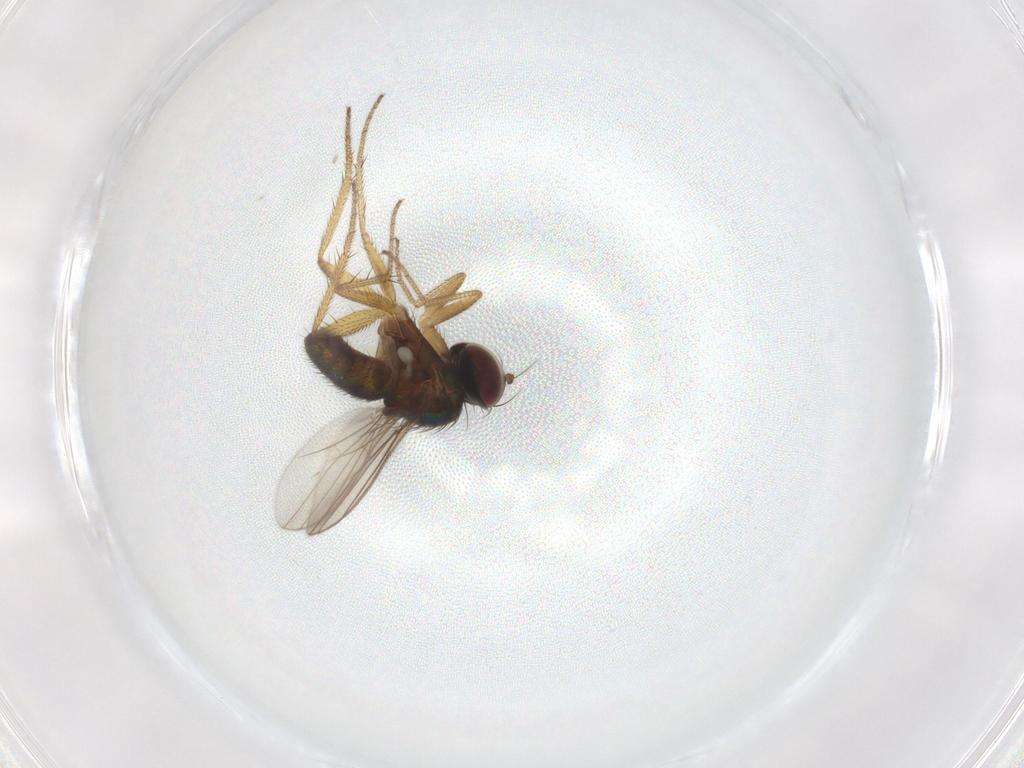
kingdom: Animalia
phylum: Arthropoda
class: Insecta
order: Diptera
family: Dolichopodidae
